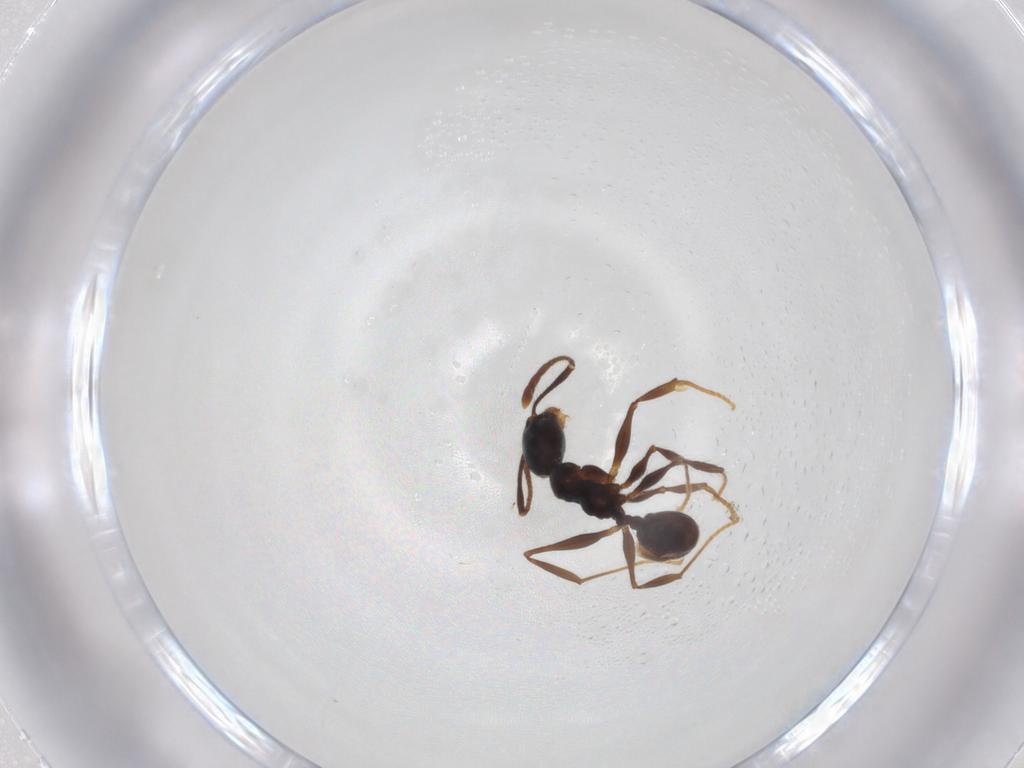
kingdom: Animalia
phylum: Arthropoda
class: Insecta
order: Hymenoptera
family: Formicidae
